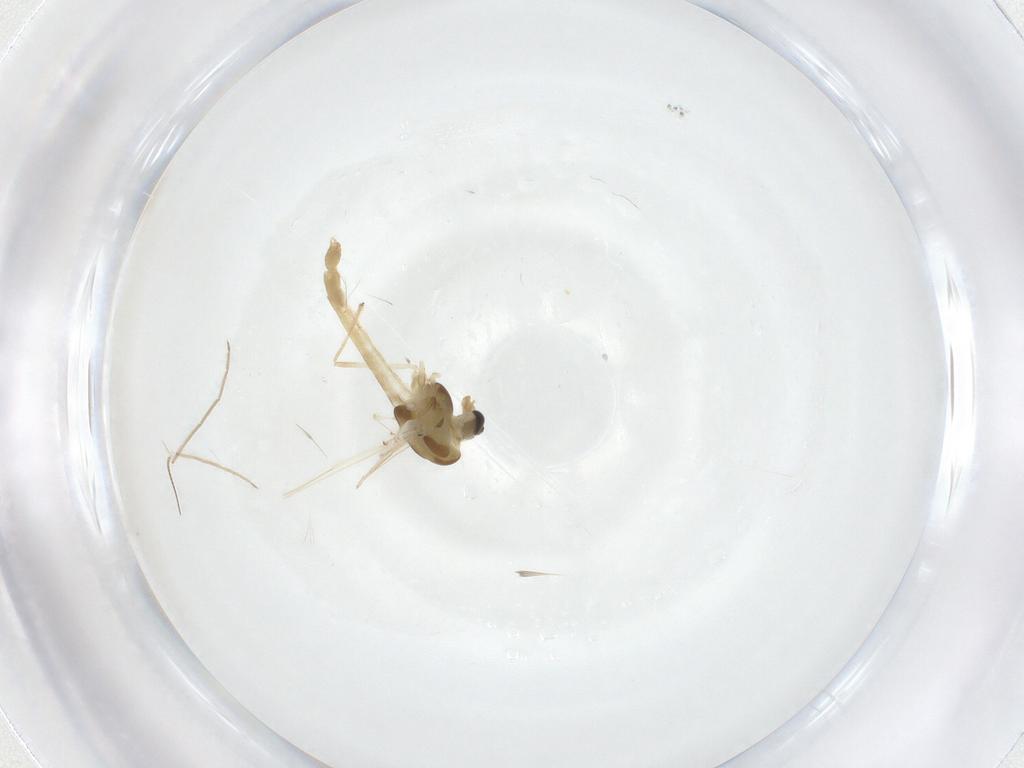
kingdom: Animalia
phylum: Arthropoda
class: Insecta
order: Diptera
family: Chironomidae
